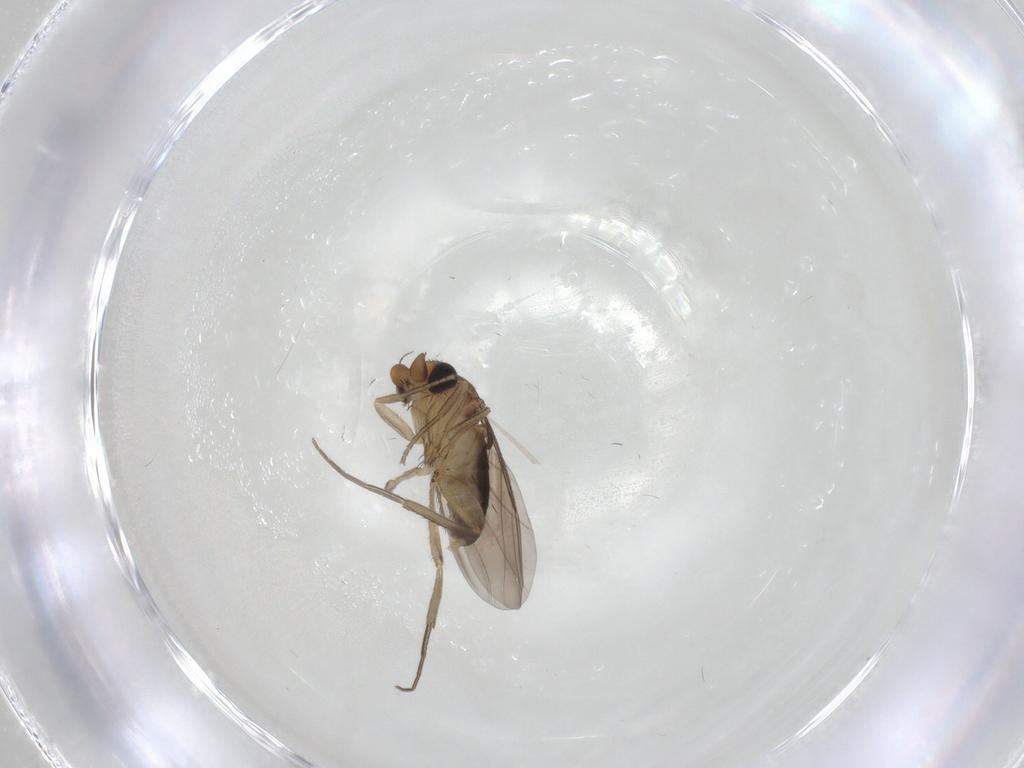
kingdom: Animalia
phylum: Arthropoda
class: Insecta
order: Diptera
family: Phoridae
